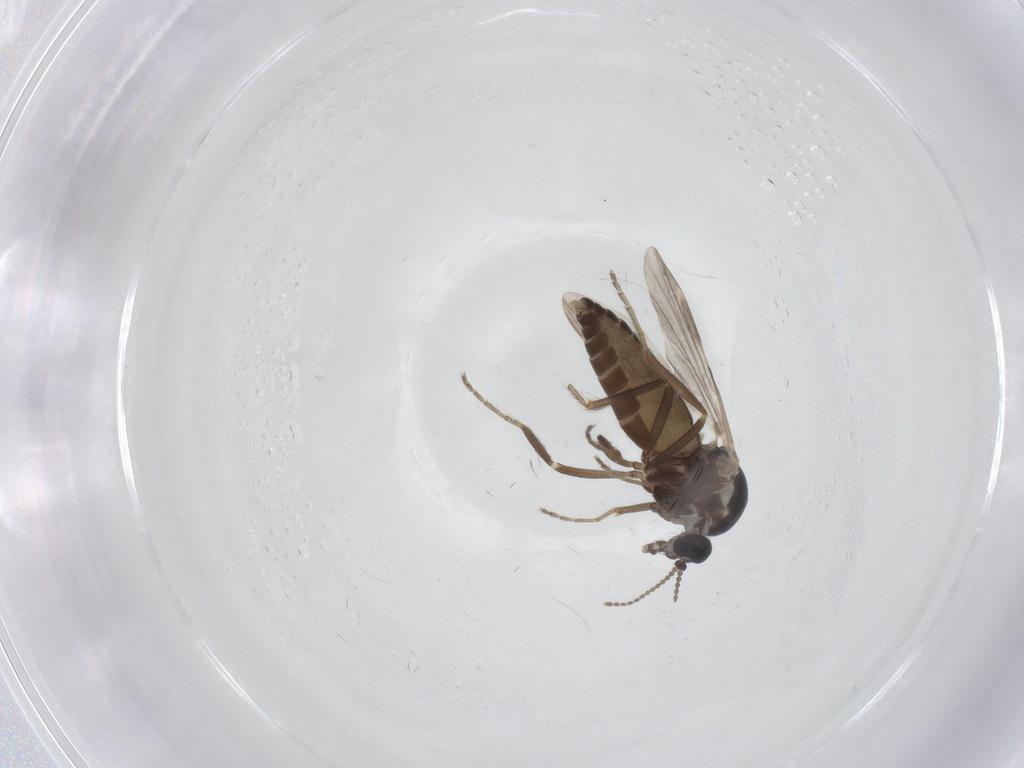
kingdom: Animalia
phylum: Arthropoda
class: Insecta
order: Diptera
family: Ceratopogonidae
